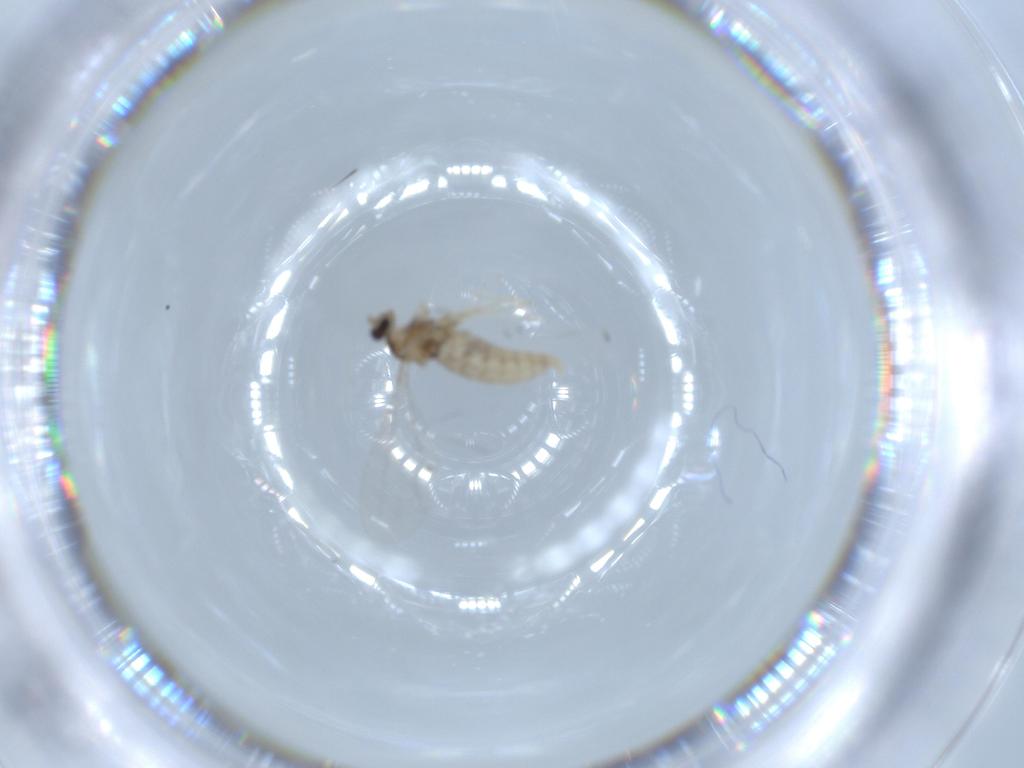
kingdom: Animalia
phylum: Arthropoda
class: Insecta
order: Diptera
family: Cecidomyiidae
